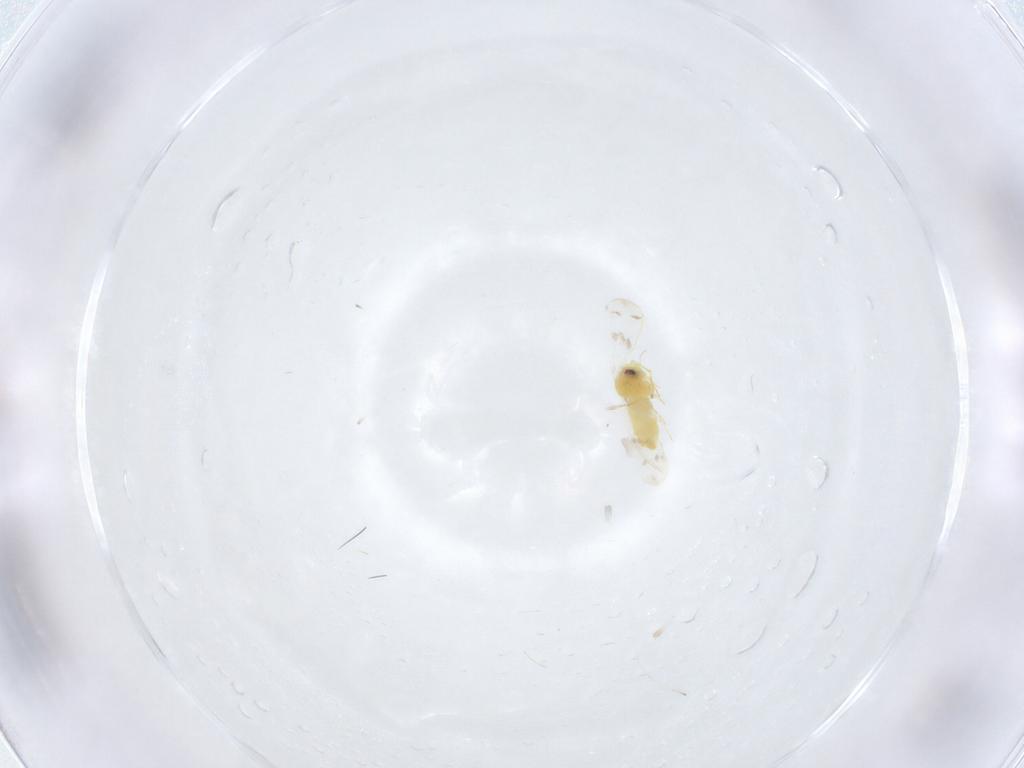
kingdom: Animalia
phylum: Arthropoda
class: Insecta
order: Hemiptera
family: Aleyrodidae
